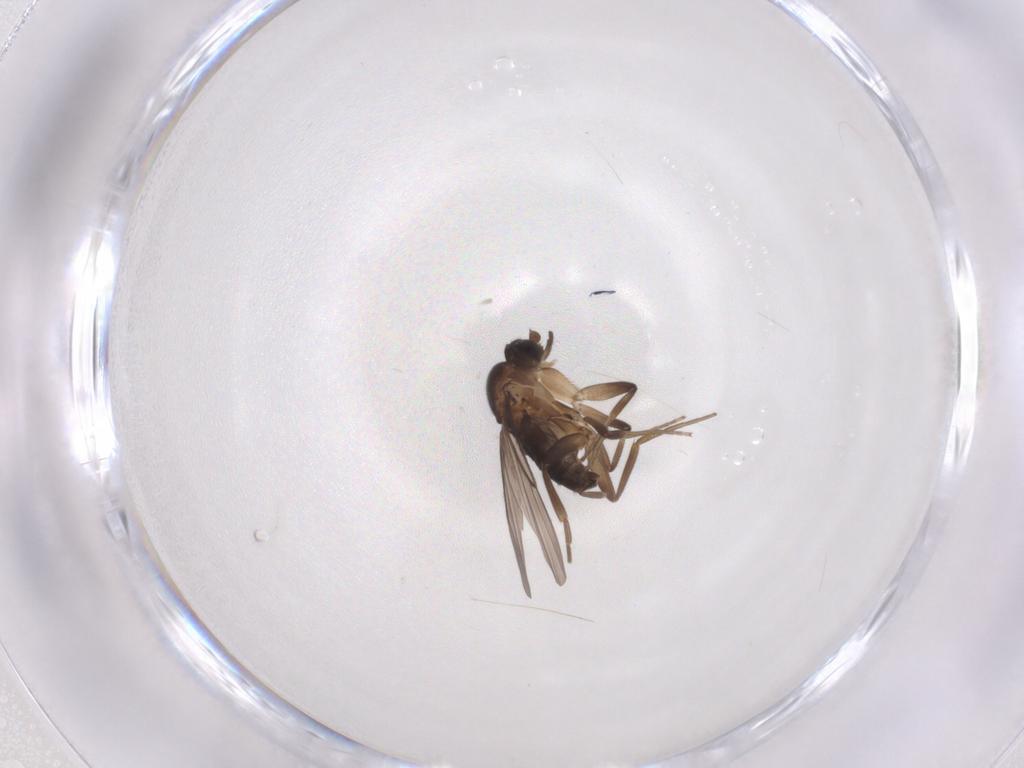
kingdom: Animalia
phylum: Arthropoda
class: Insecta
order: Diptera
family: Phoridae
